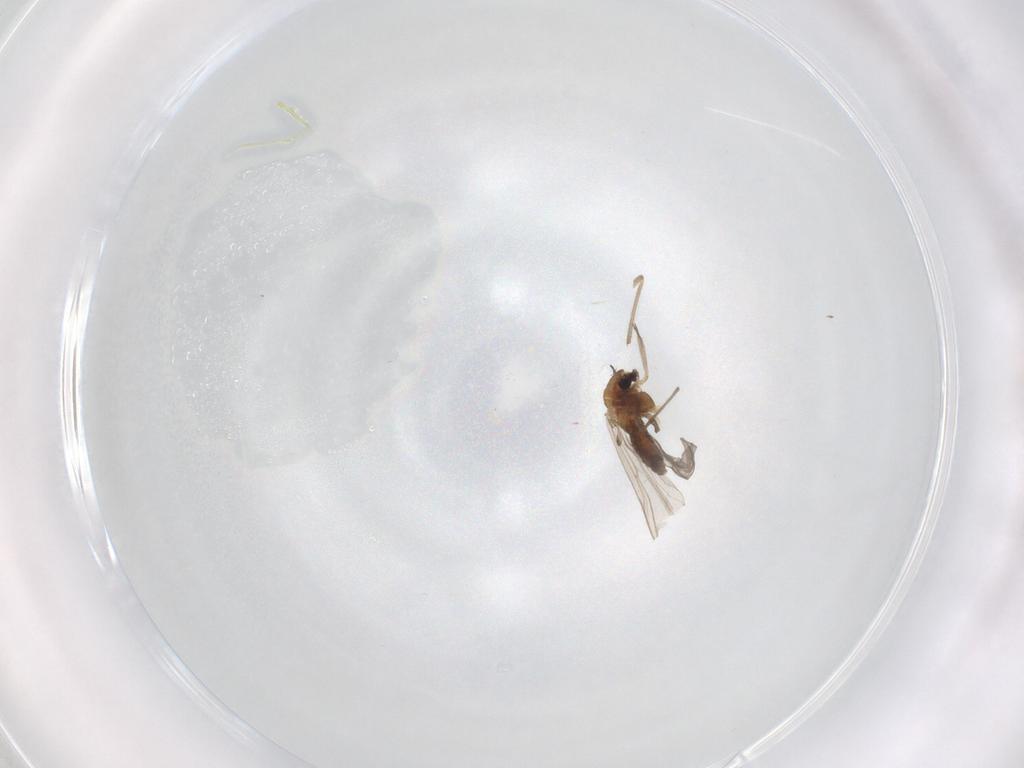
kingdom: Animalia
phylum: Arthropoda
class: Insecta
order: Diptera
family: Chironomidae
